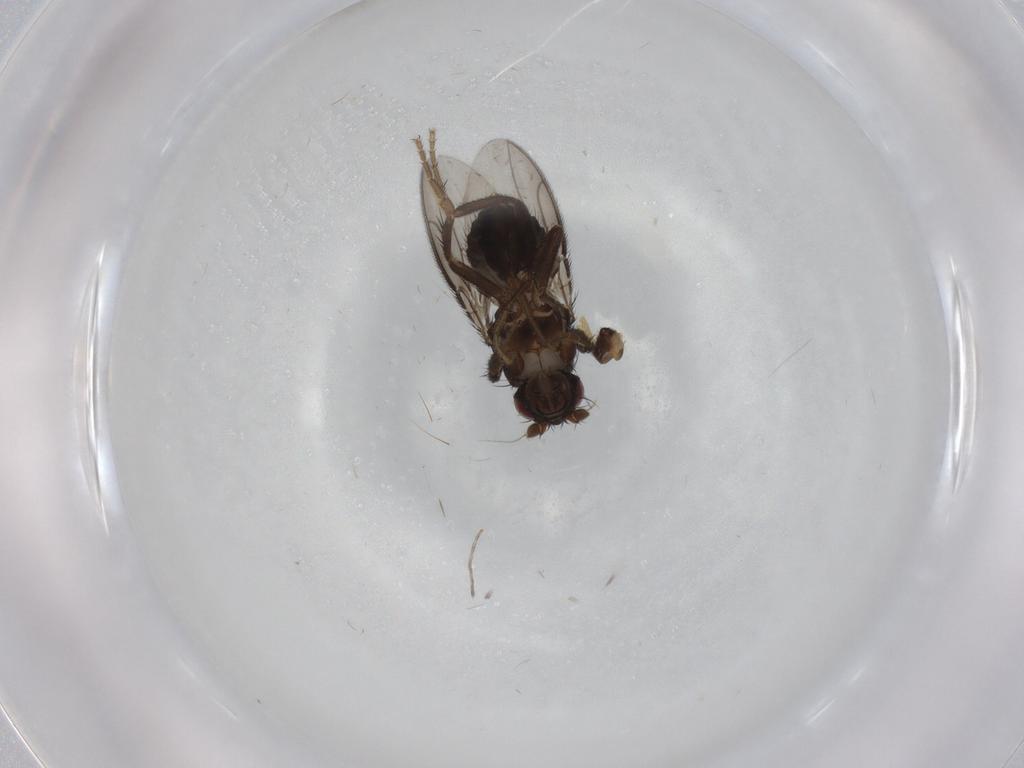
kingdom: Animalia
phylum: Arthropoda
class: Insecta
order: Diptera
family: Sphaeroceridae
